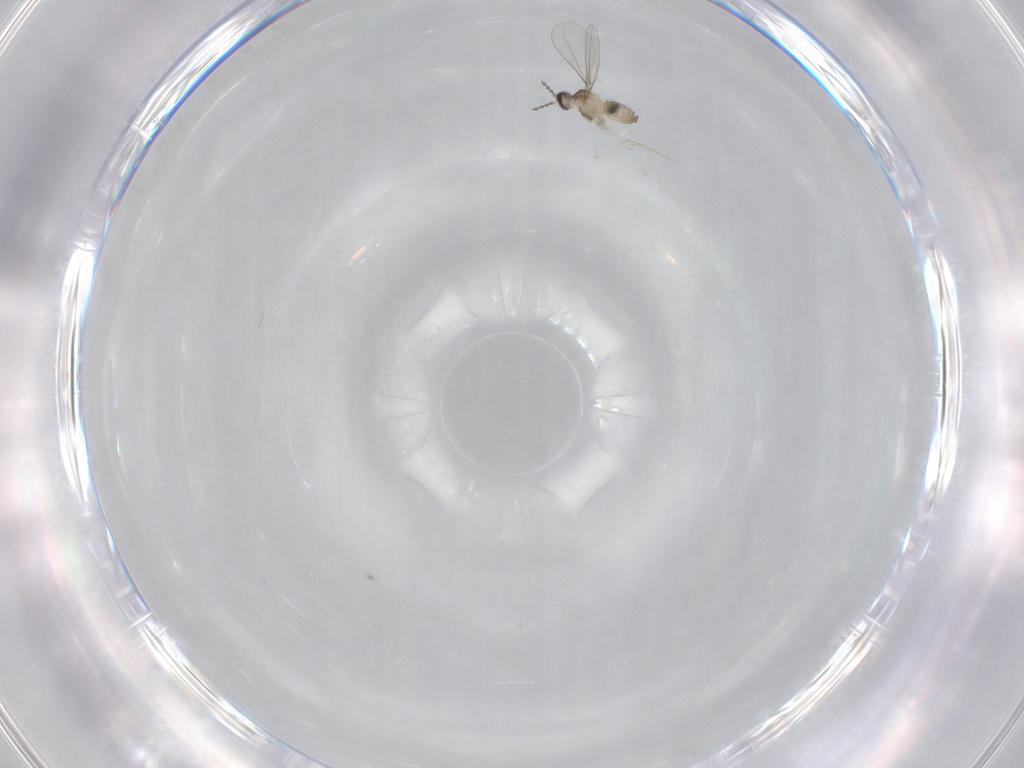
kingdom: Animalia
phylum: Arthropoda
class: Insecta
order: Diptera
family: Cecidomyiidae
